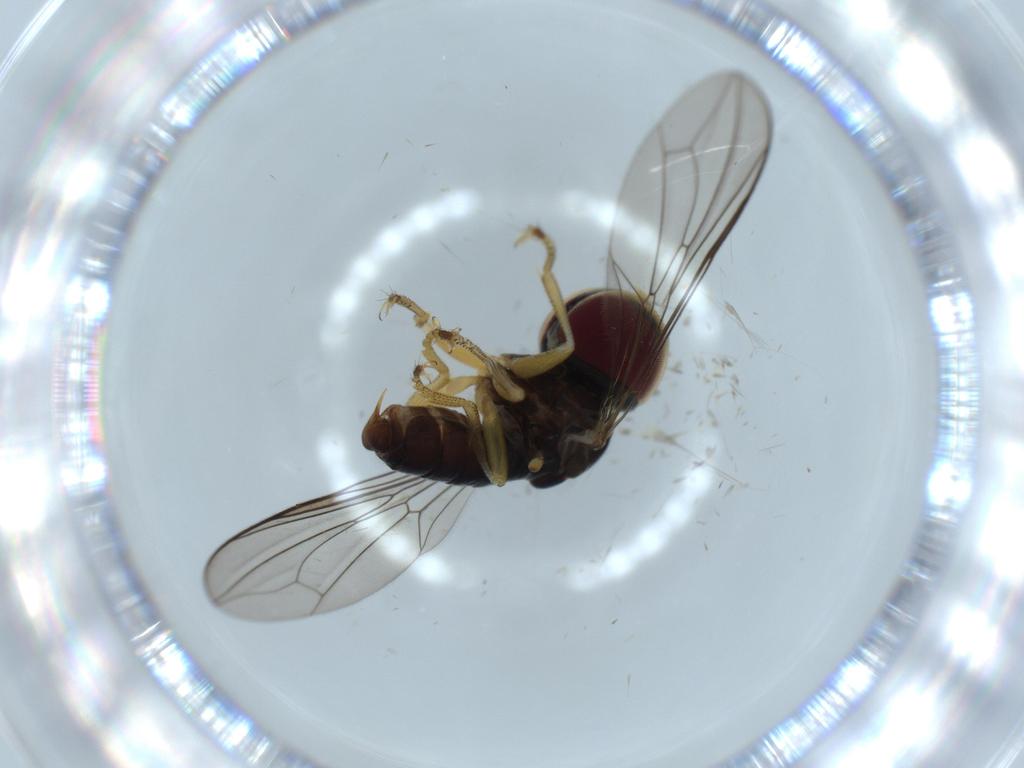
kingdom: Animalia
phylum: Arthropoda
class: Insecta
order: Diptera
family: Pipunculidae
